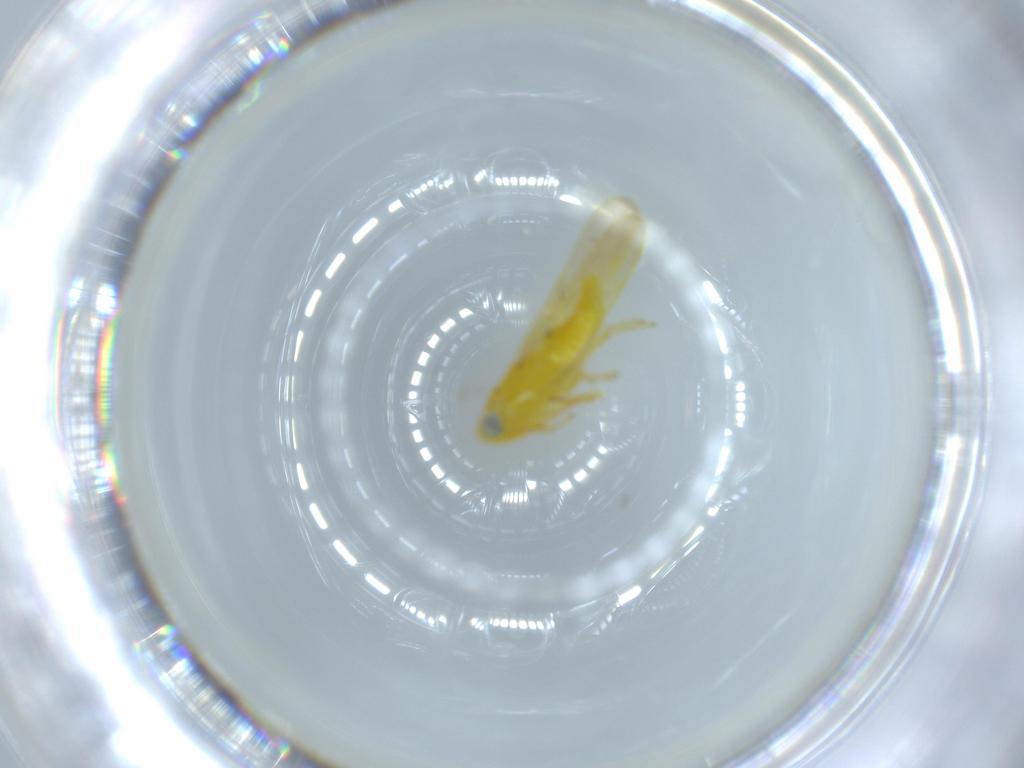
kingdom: Animalia
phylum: Arthropoda
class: Insecta
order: Hemiptera
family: Cicadellidae
